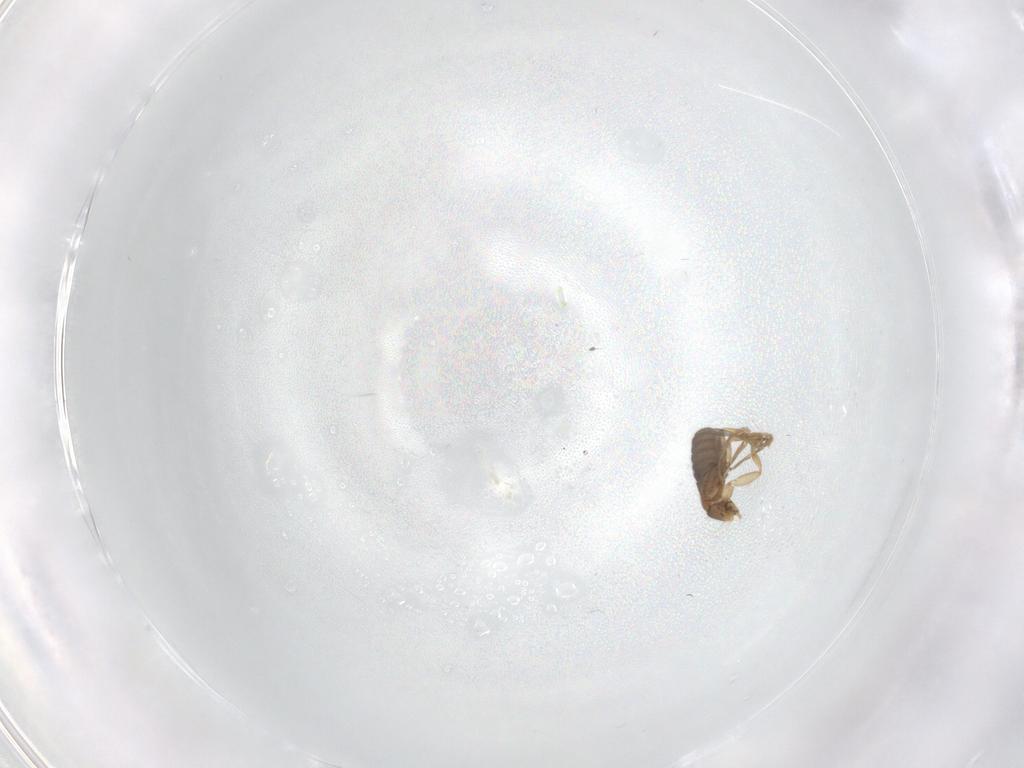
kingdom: Animalia
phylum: Arthropoda
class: Insecta
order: Diptera
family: Phoridae
